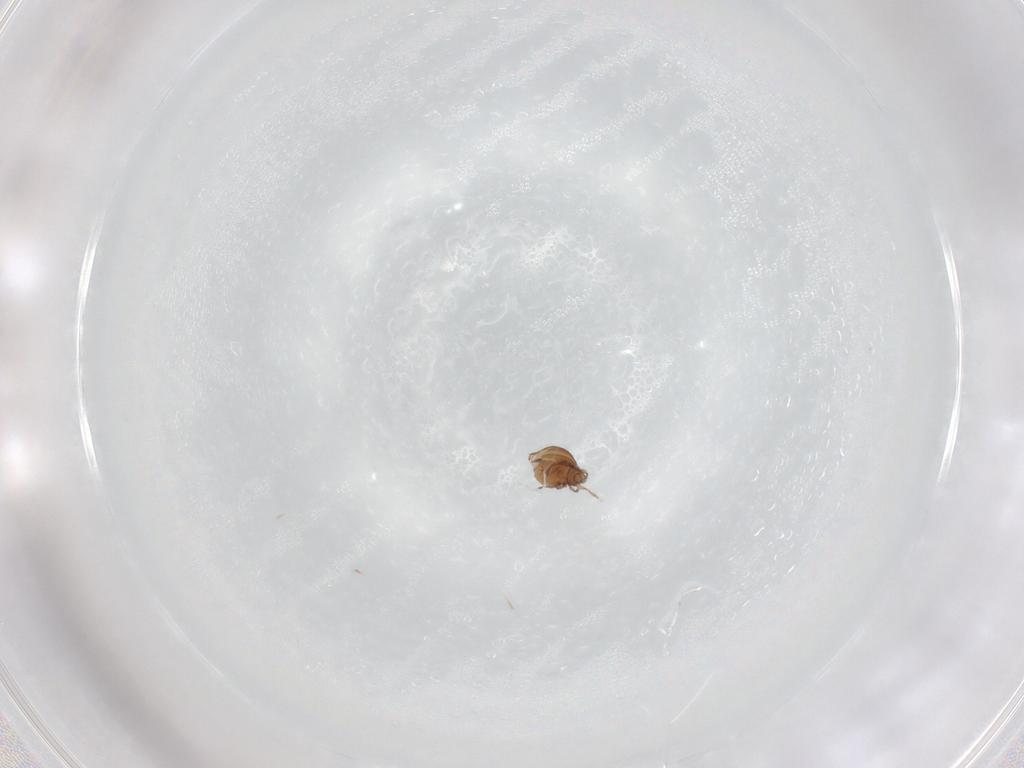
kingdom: Animalia
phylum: Arthropoda
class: Arachnida
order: Sarcoptiformes
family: Oribatulidae
